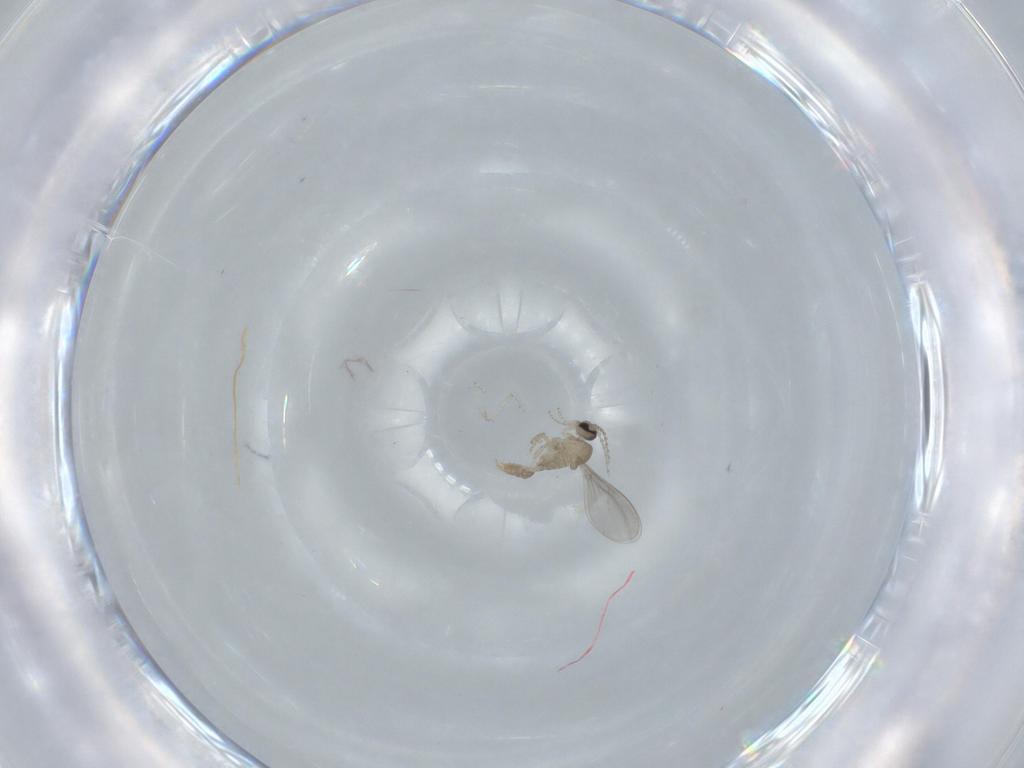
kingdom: Animalia
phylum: Arthropoda
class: Insecta
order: Diptera
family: Cecidomyiidae
